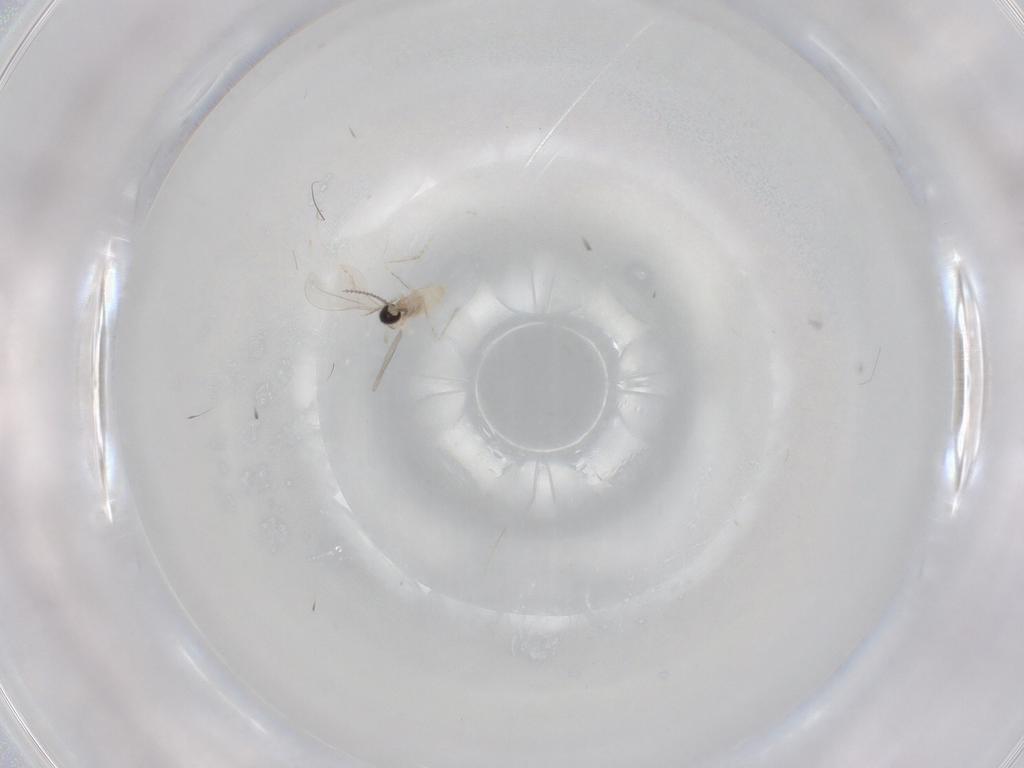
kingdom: Animalia
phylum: Arthropoda
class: Insecta
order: Diptera
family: Cecidomyiidae
